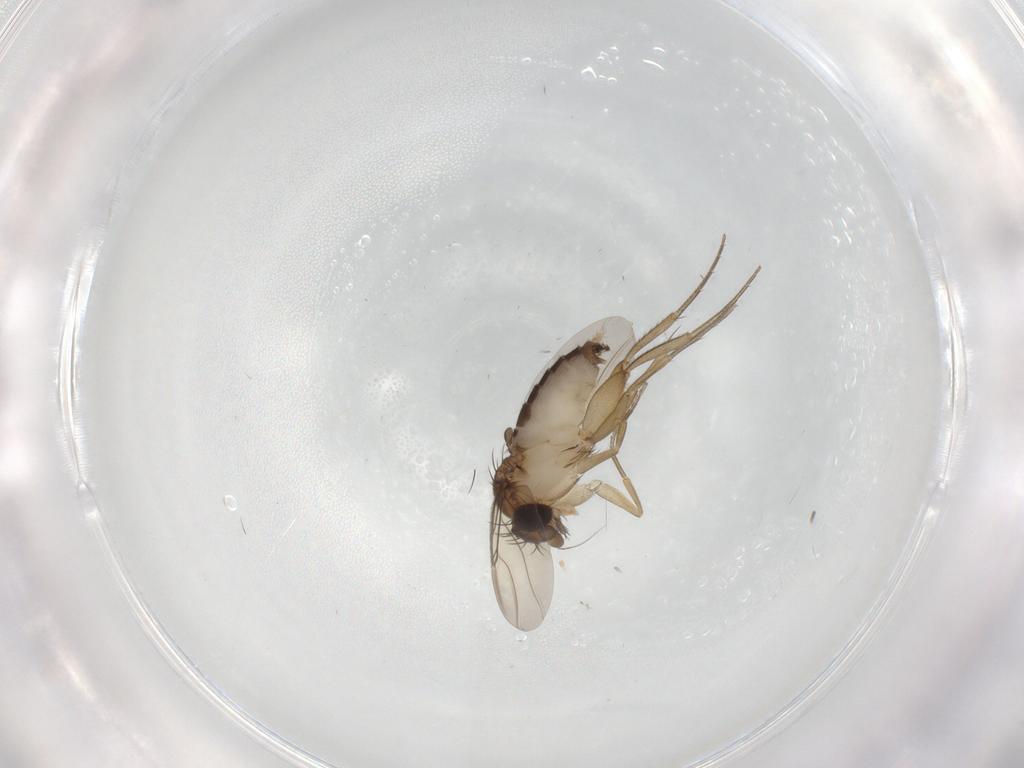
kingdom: Animalia
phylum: Arthropoda
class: Insecta
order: Diptera
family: Phoridae
